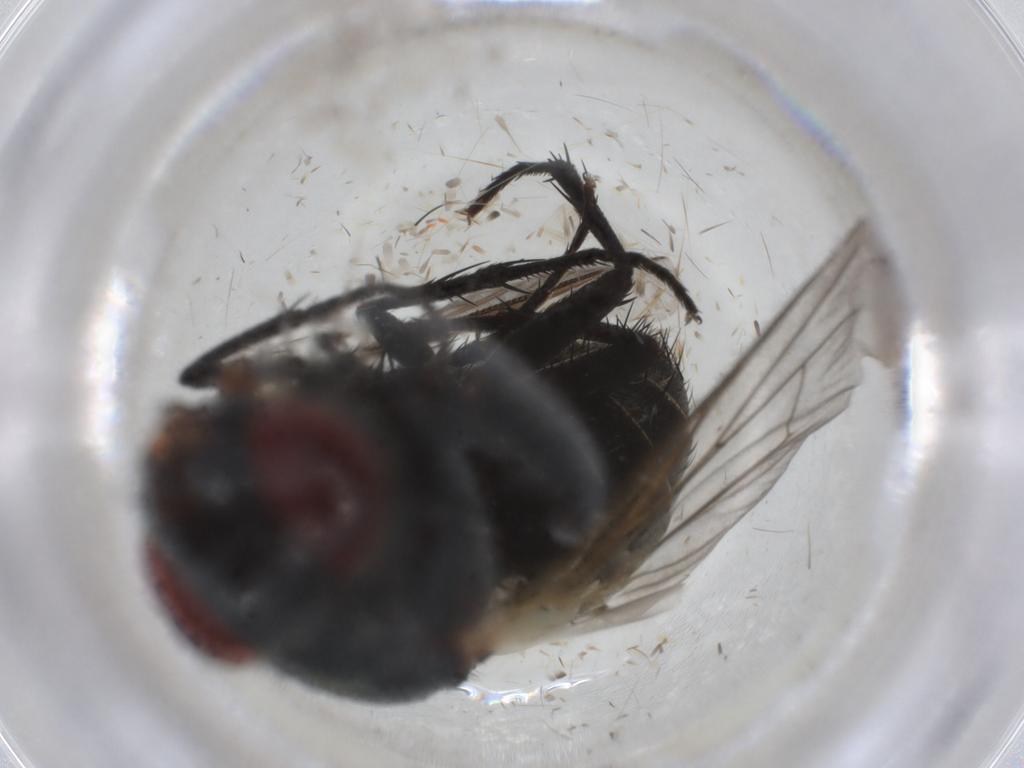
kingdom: Animalia
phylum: Arthropoda
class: Insecta
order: Diptera
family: Sarcophagidae
